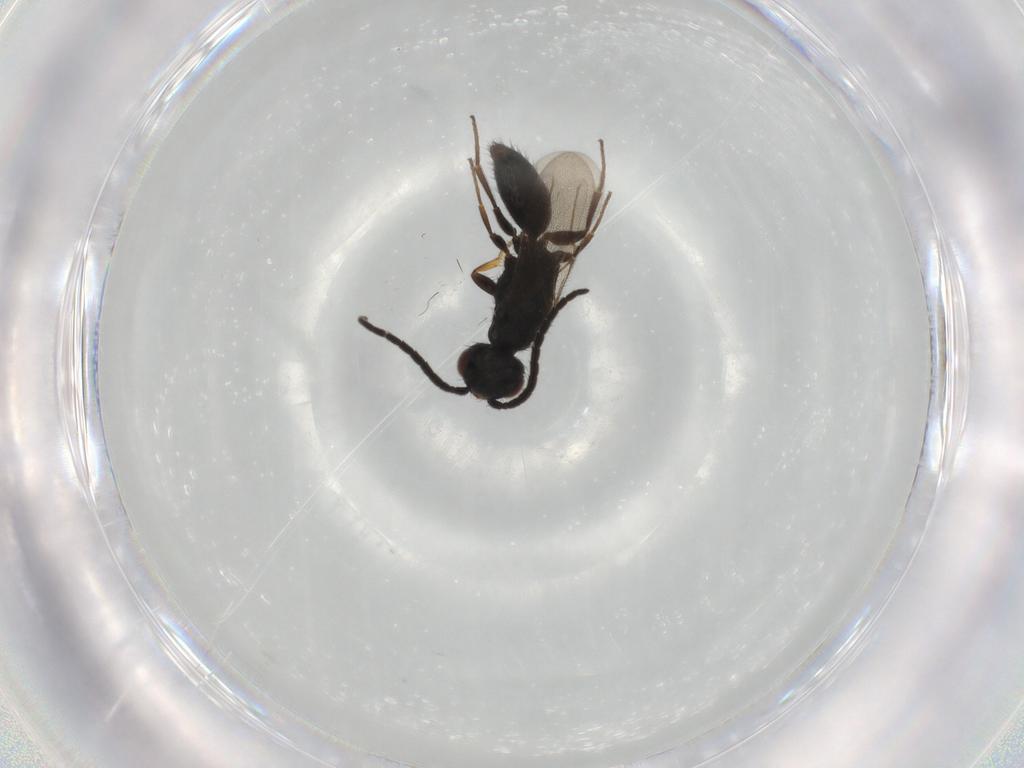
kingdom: Animalia
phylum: Arthropoda
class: Insecta
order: Hymenoptera
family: Bethylidae
